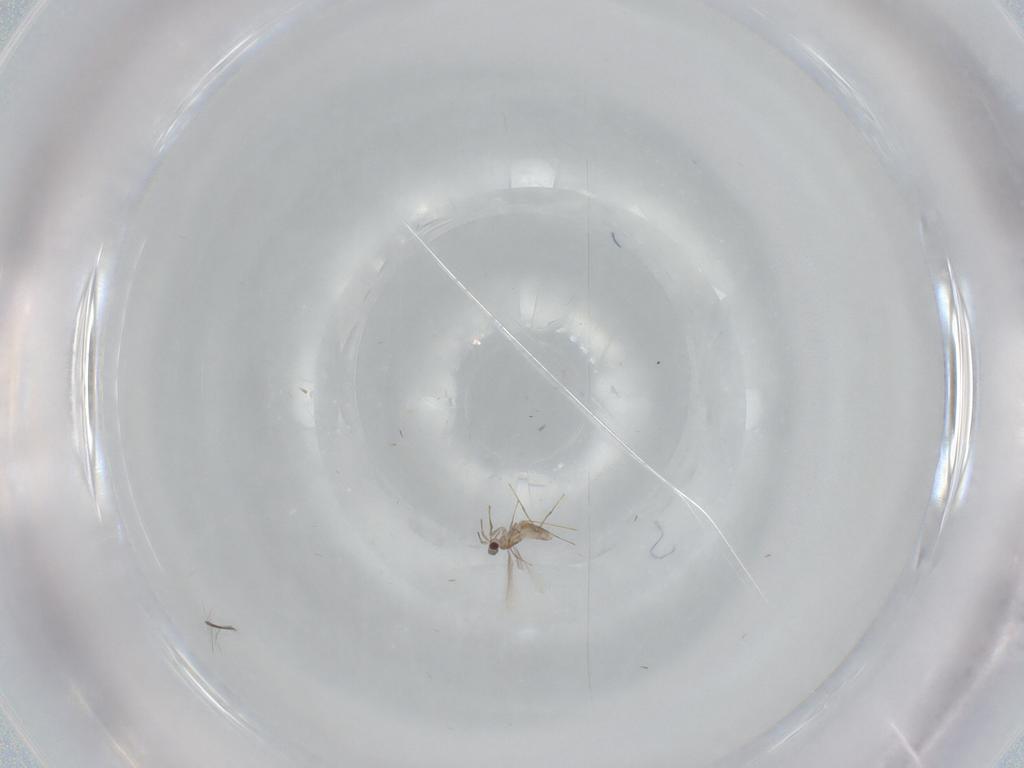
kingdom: Animalia
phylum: Arthropoda
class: Insecta
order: Hymenoptera
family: Mymaridae
